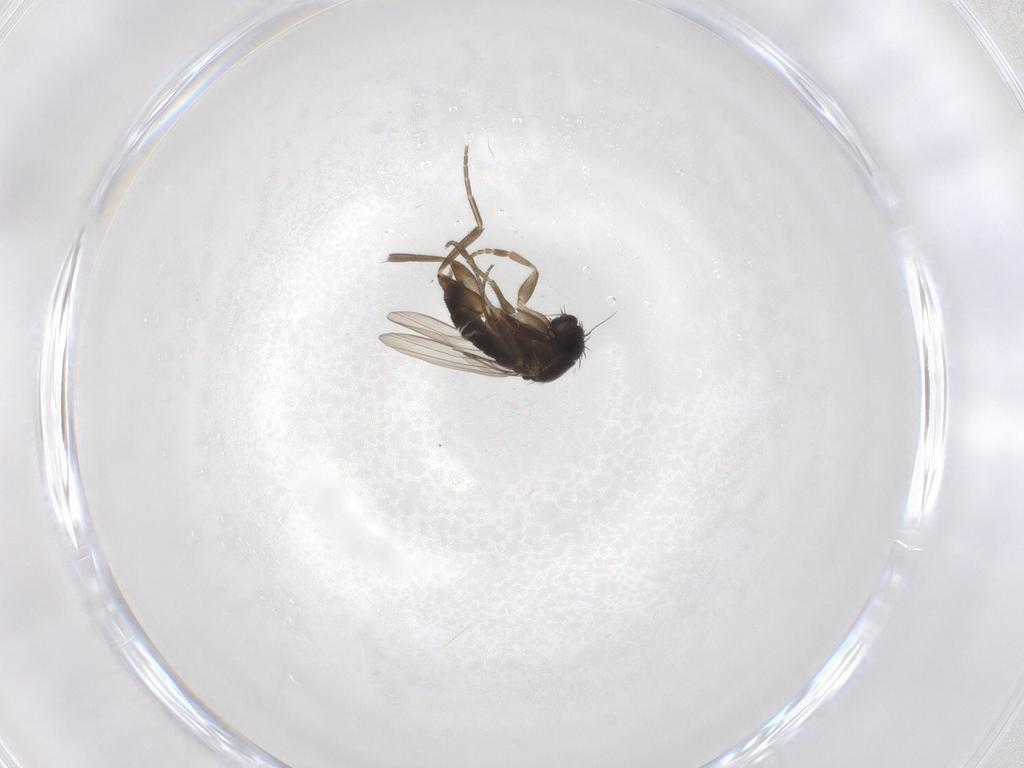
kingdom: Animalia
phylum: Arthropoda
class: Insecta
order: Diptera
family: Phoridae
